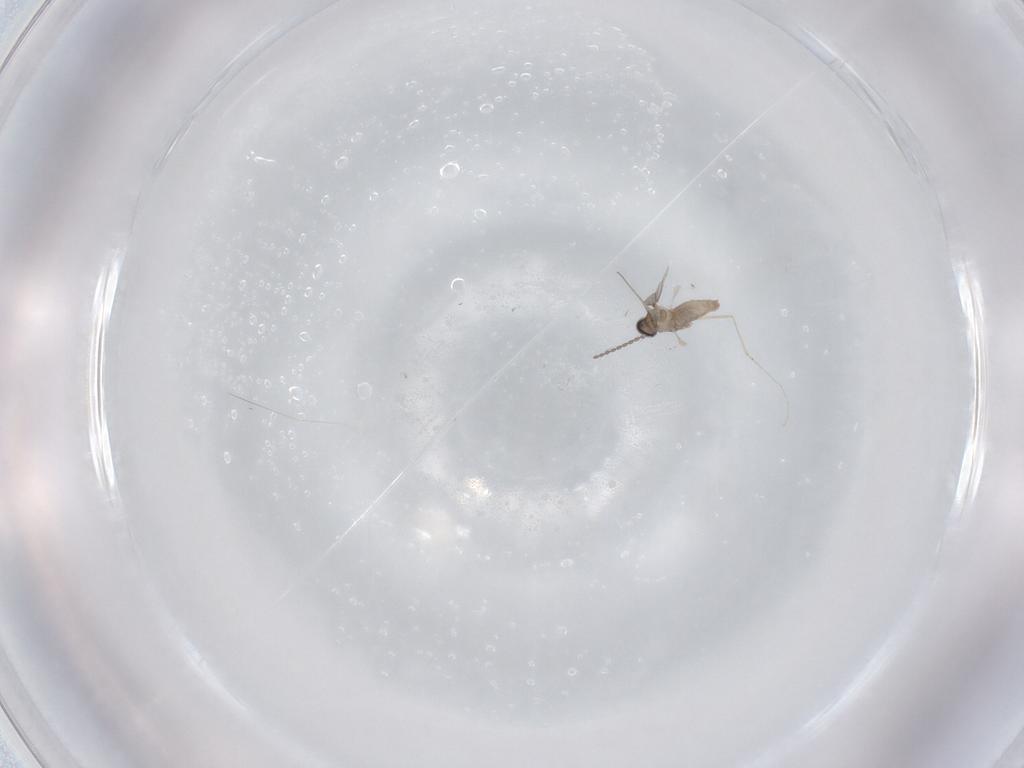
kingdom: Animalia
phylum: Arthropoda
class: Insecta
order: Diptera
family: Cecidomyiidae
